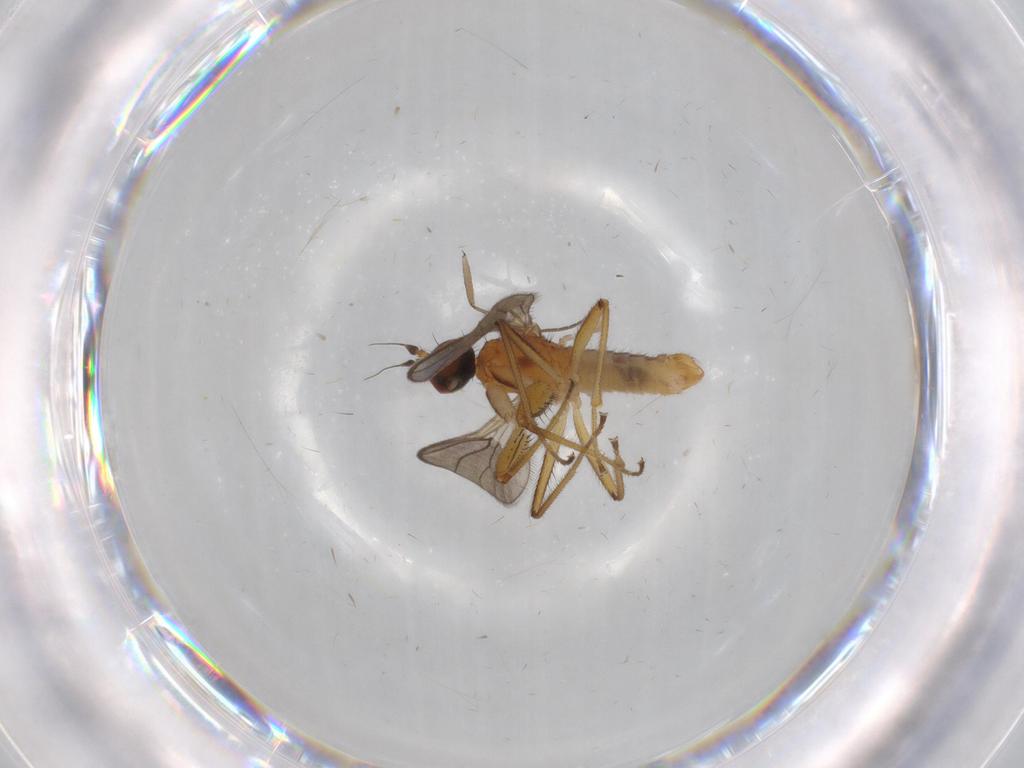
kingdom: Animalia
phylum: Arthropoda
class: Insecta
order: Diptera
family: Empididae
